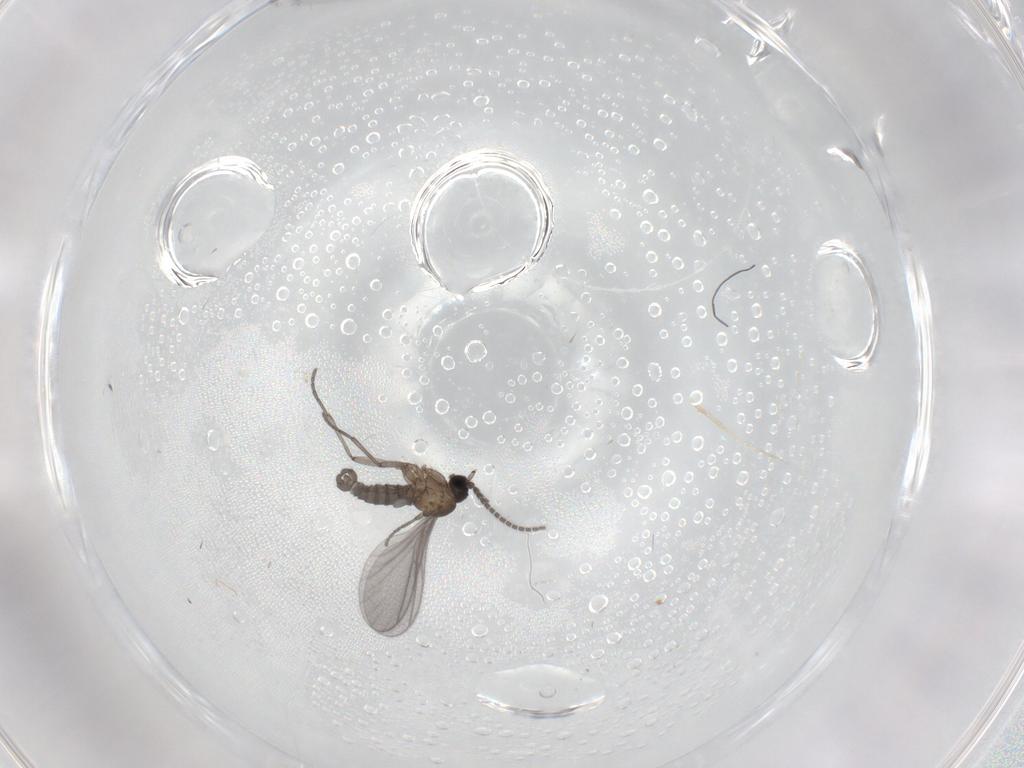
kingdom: Animalia
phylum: Arthropoda
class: Insecta
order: Diptera
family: Sciaridae
